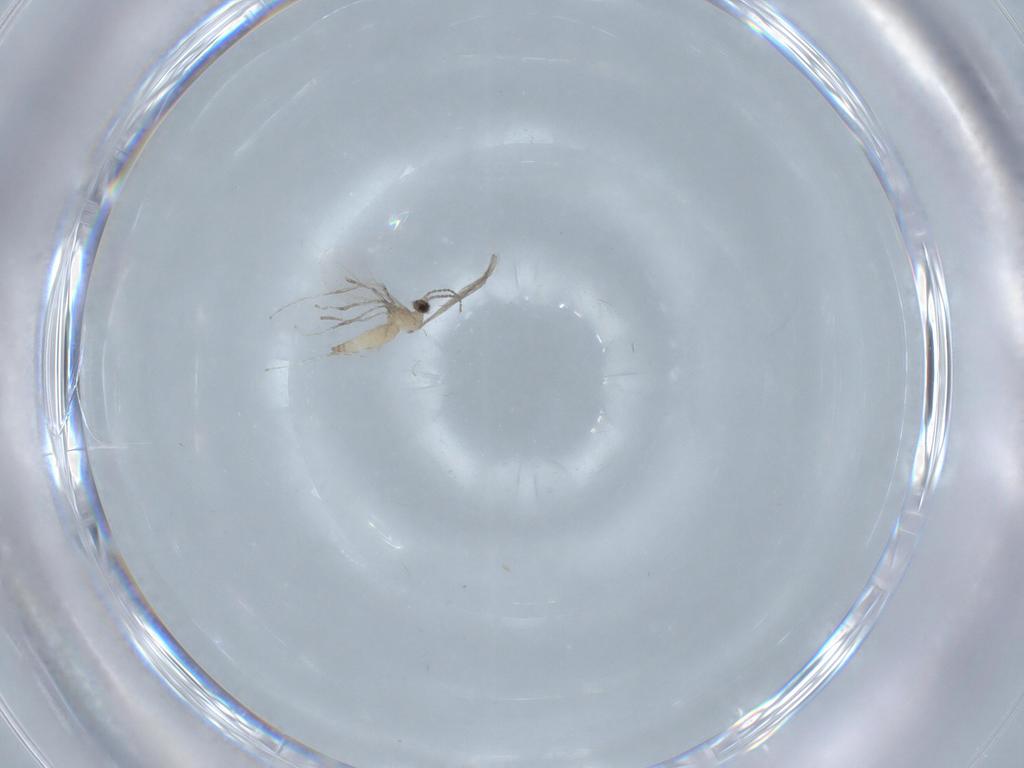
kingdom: Animalia
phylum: Arthropoda
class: Insecta
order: Diptera
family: Cecidomyiidae
